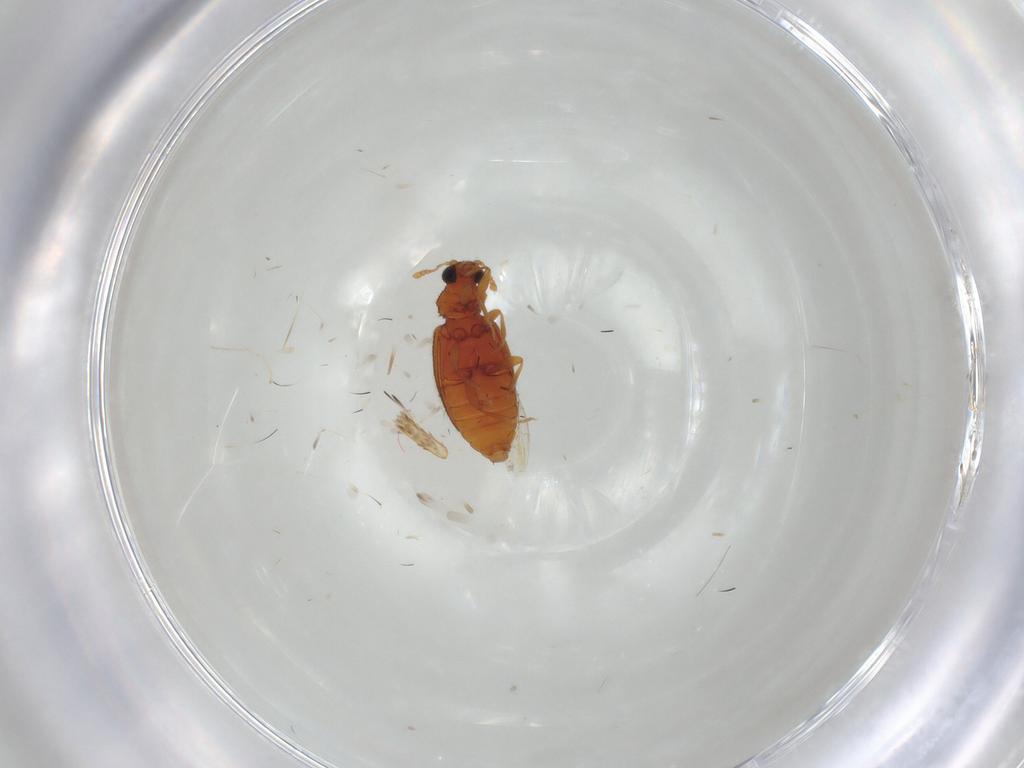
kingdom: Animalia
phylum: Arthropoda
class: Insecta
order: Coleoptera
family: Latridiidae
